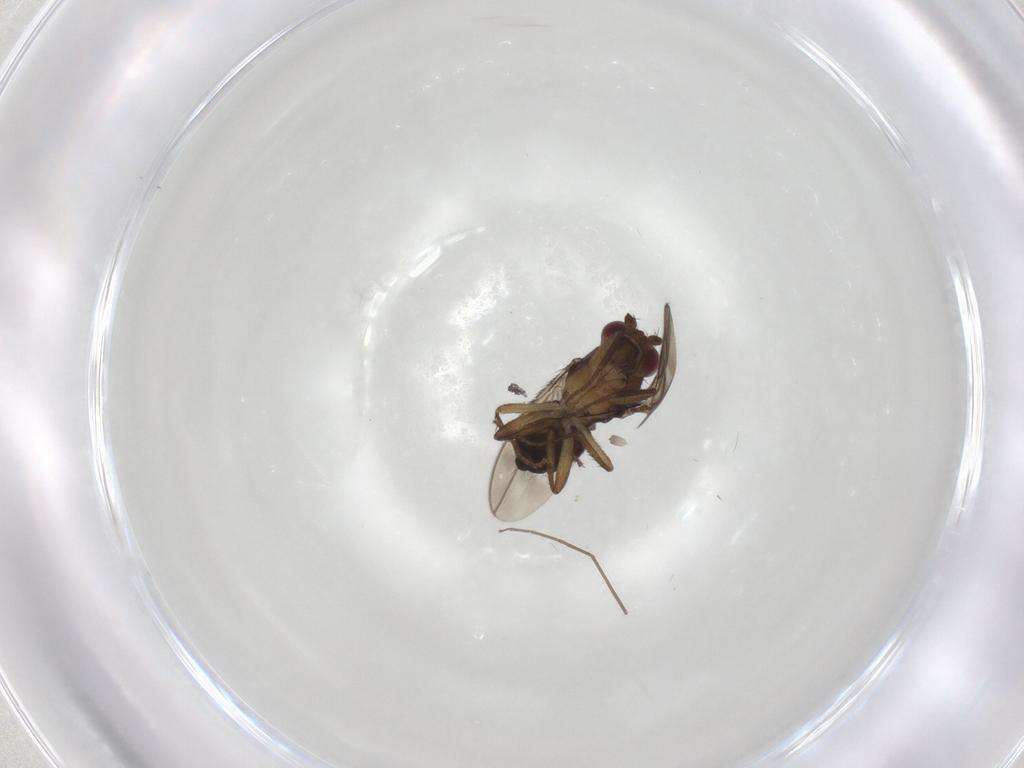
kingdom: Animalia
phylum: Arthropoda
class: Insecta
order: Diptera
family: Sphaeroceridae
